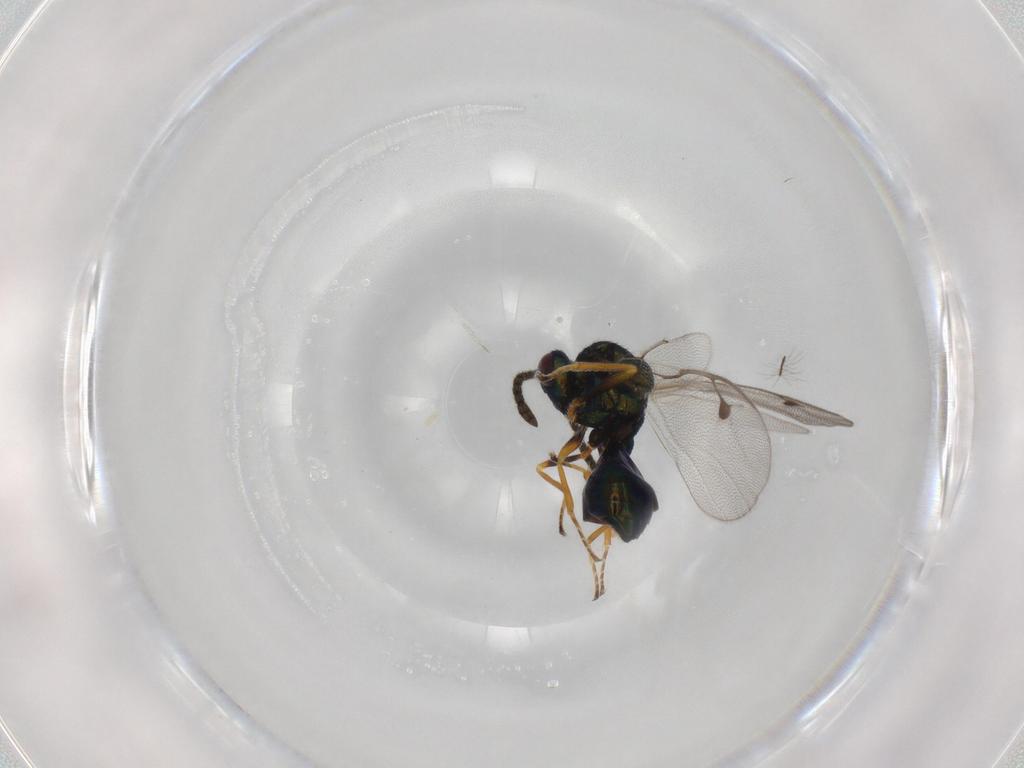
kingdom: Animalia
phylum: Arthropoda
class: Insecta
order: Hymenoptera
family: Pteromalidae
